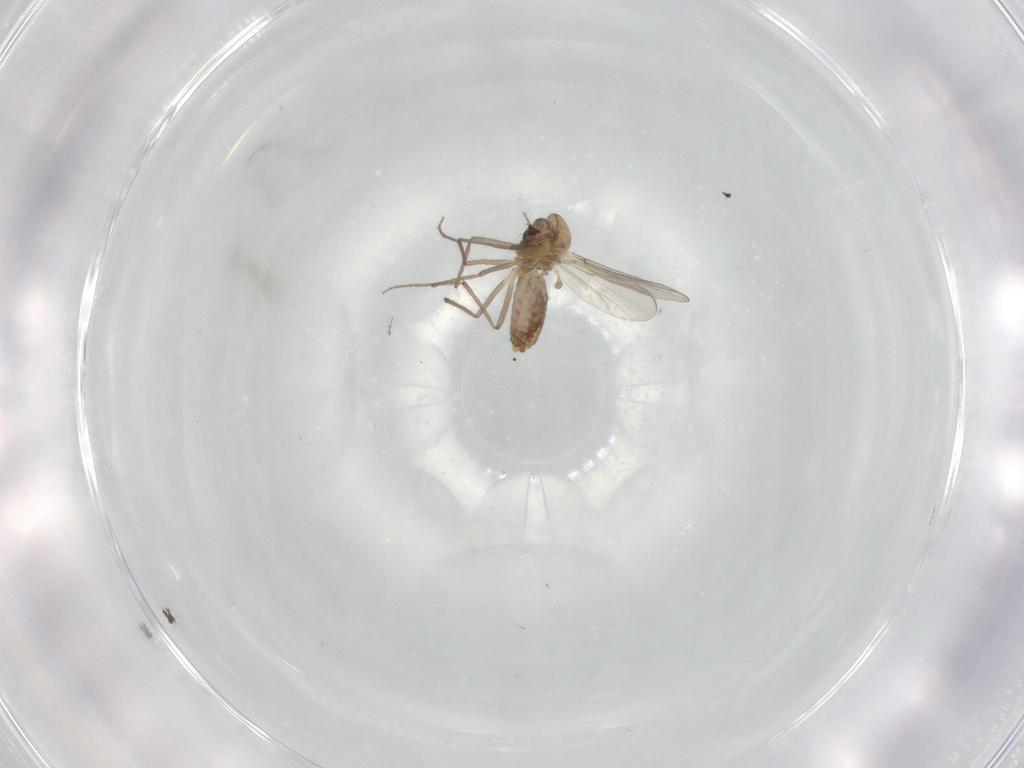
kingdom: Animalia
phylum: Arthropoda
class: Insecta
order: Diptera
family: Chironomidae
